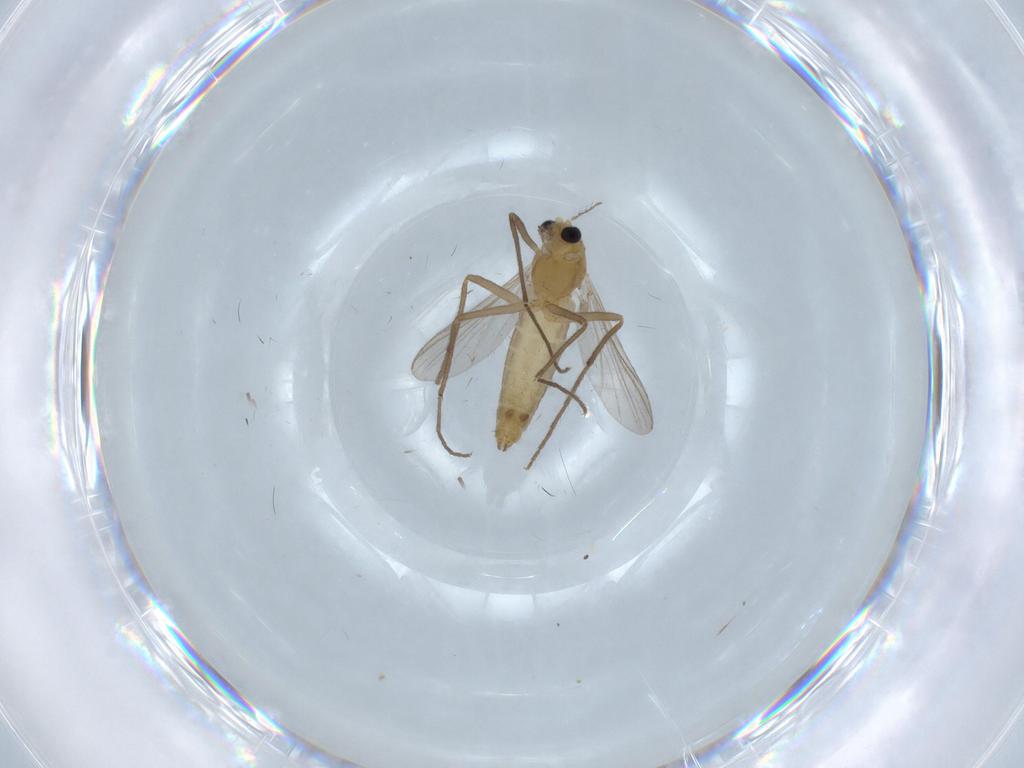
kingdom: Animalia
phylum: Arthropoda
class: Insecta
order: Diptera
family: Chironomidae
